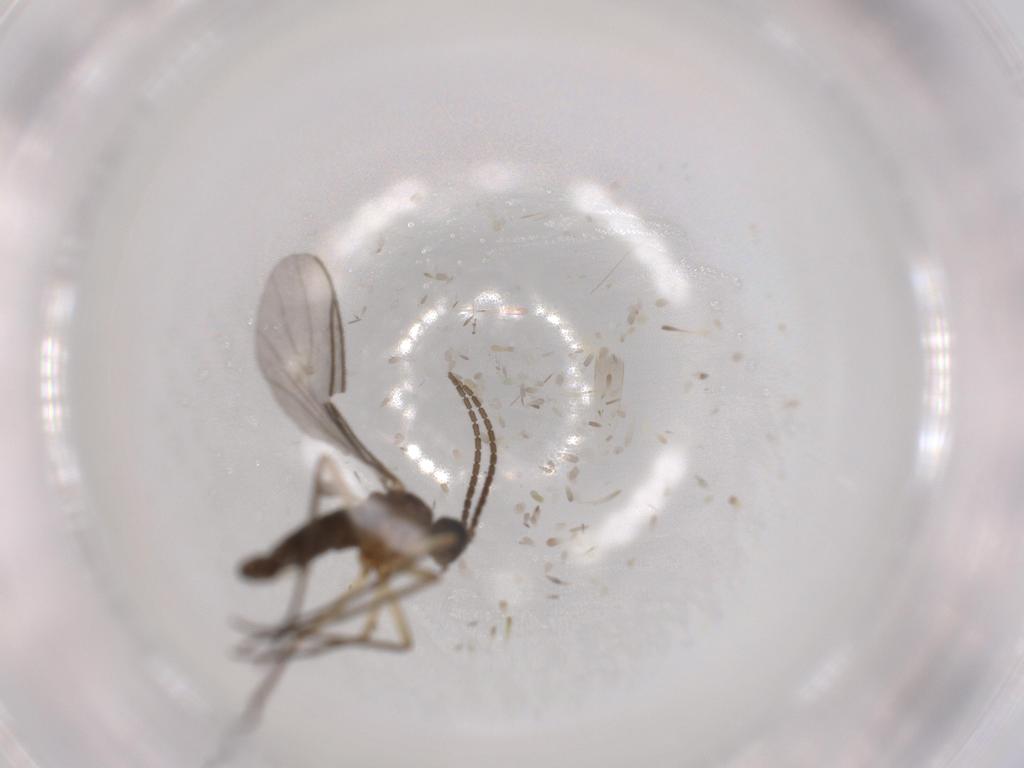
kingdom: Animalia
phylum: Arthropoda
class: Insecta
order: Diptera
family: Sciaridae
